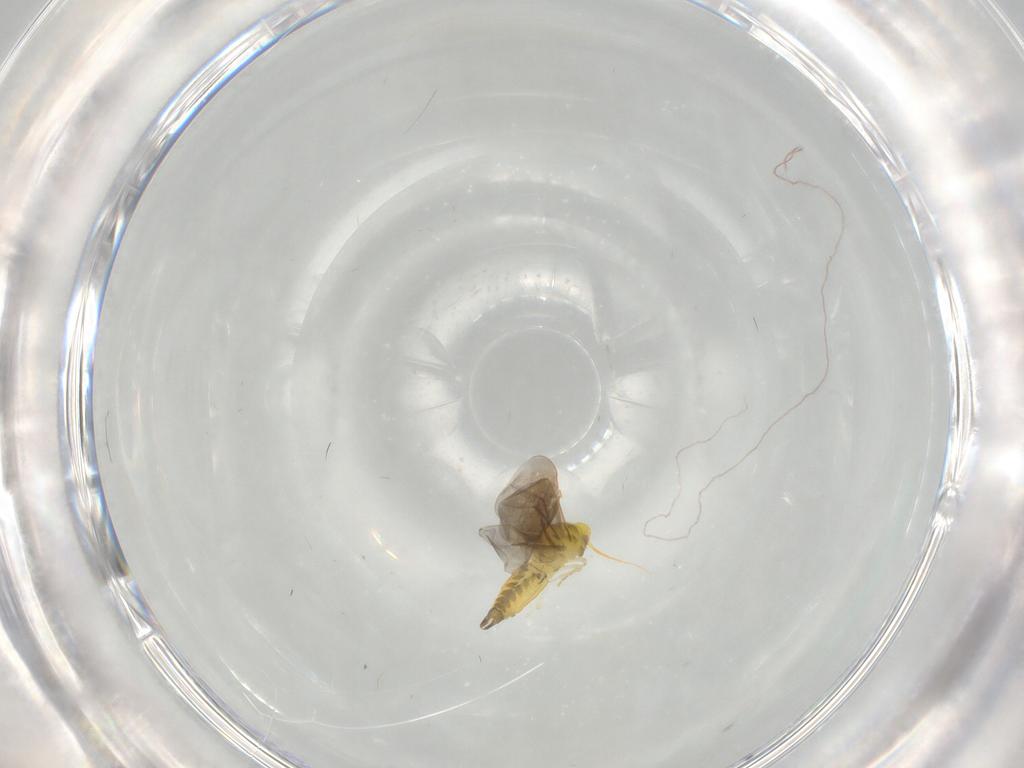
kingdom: Animalia
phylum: Arthropoda
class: Insecta
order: Hemiptera
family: Aleyrodidae
